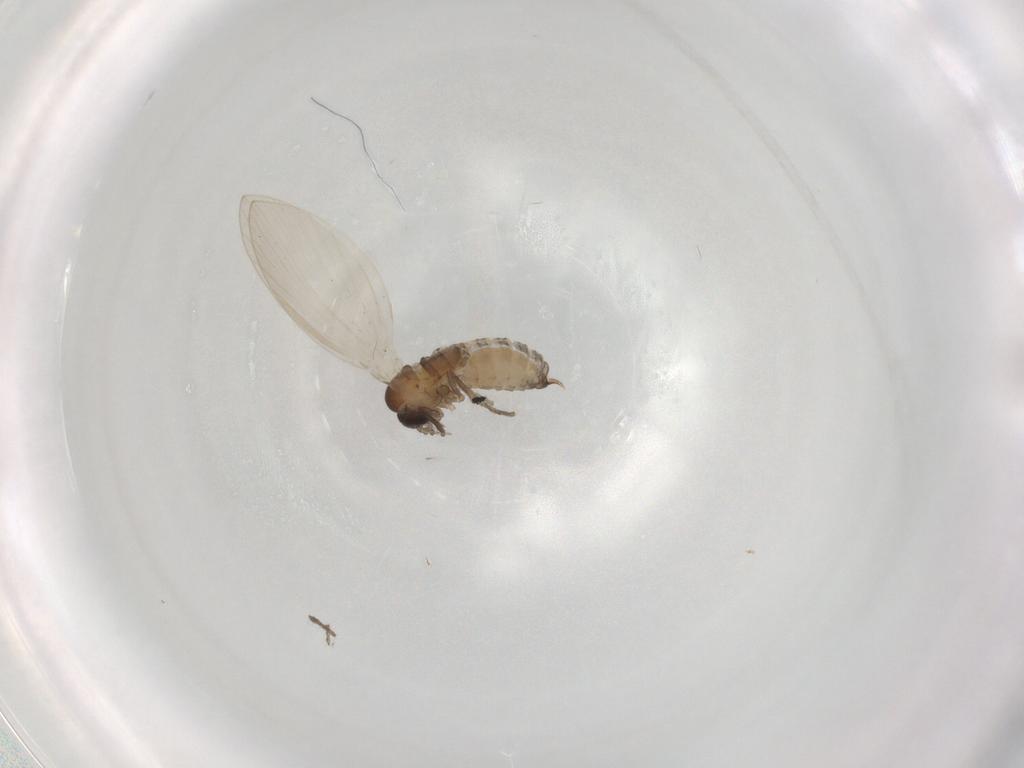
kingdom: Animalia
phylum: Arthropoda
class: Insecta
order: Diptera
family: Psychodidae
